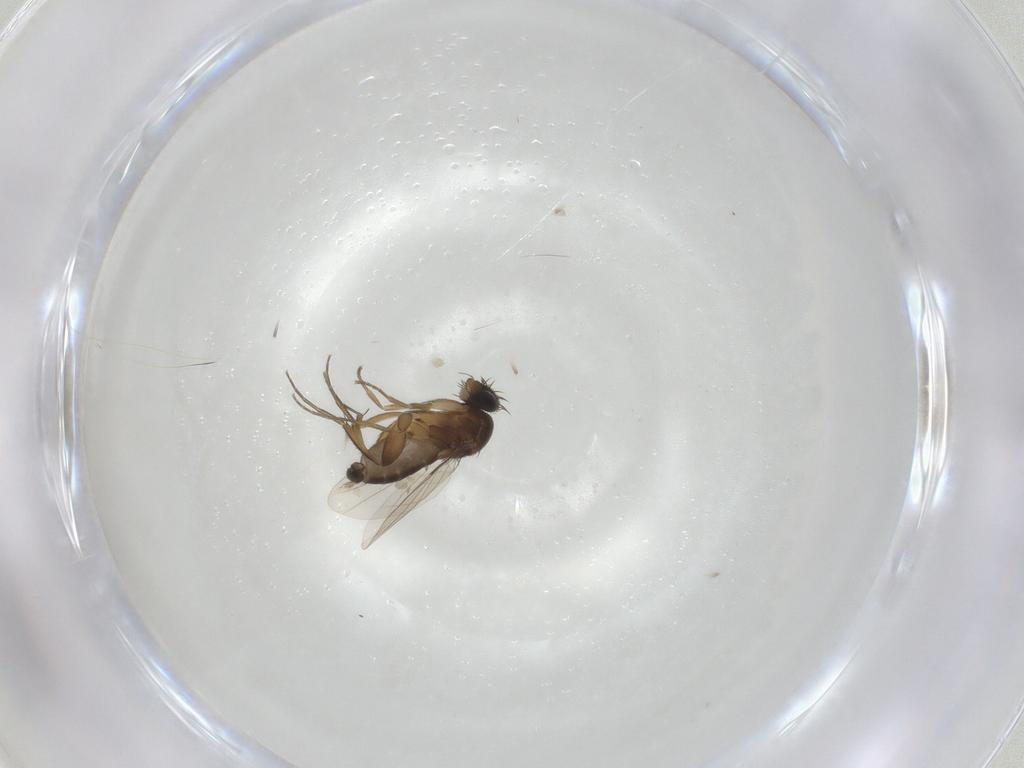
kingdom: Animalia
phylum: Arthropoda
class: Insecta
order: Diptera
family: Phoridae
